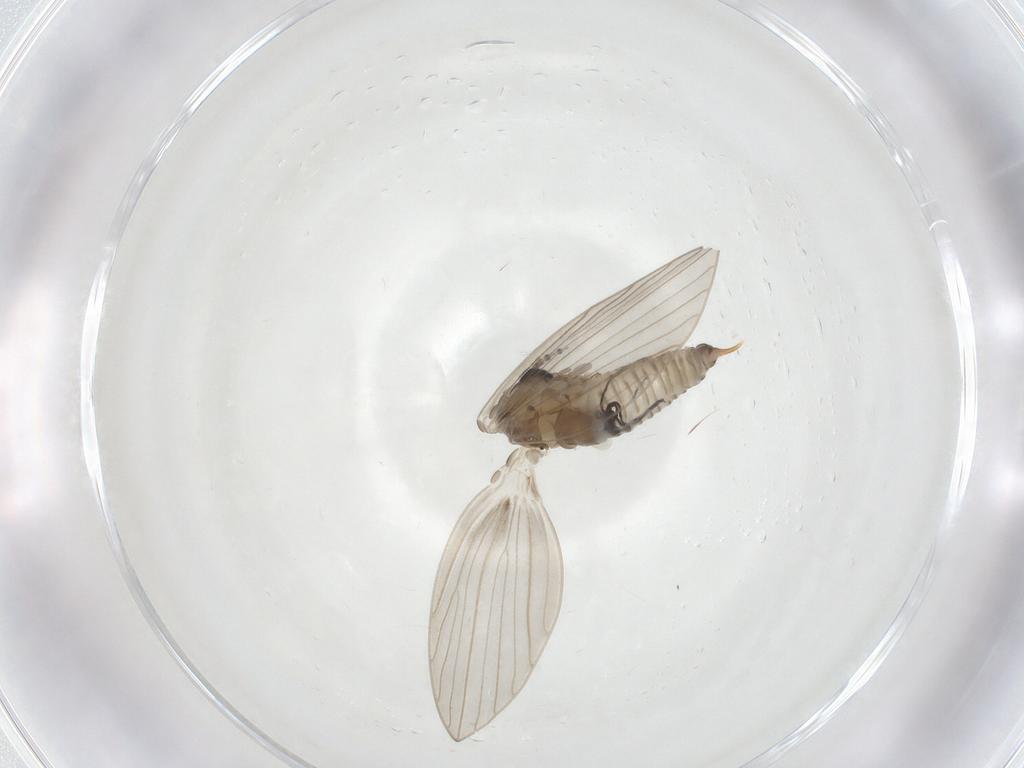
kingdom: Animalia
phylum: Arthropoda
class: Insecta
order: Diptera
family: Psychodidae
